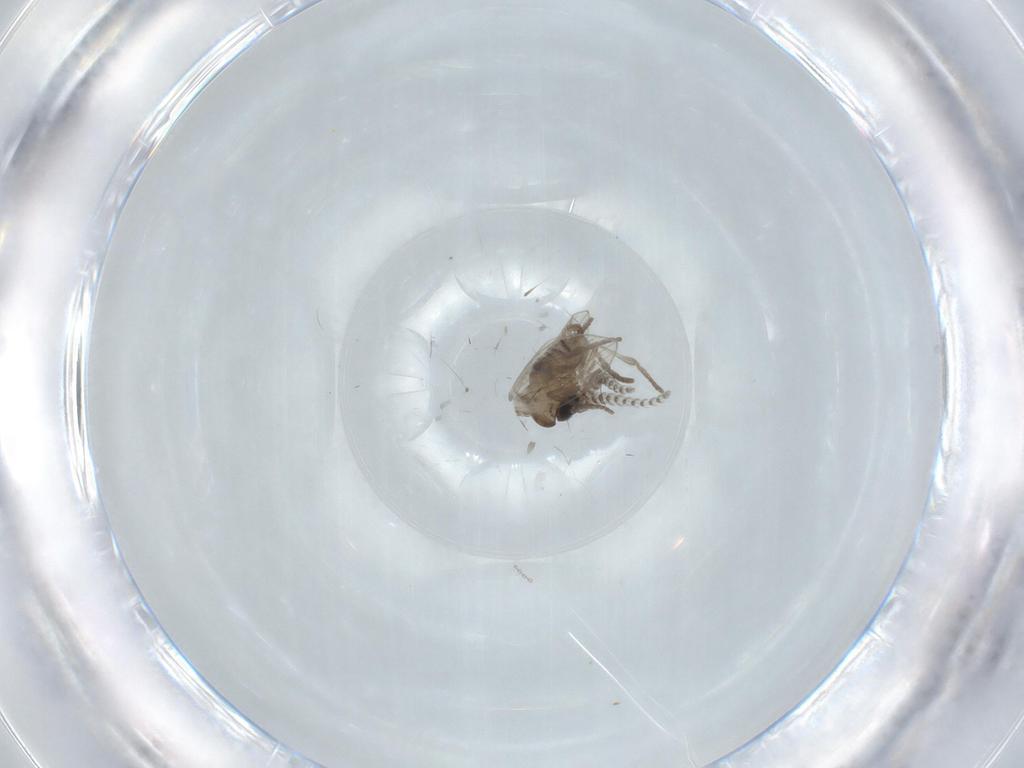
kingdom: Animalia
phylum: Arthropoda
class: Insecta
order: Diptera
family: Psychodidae
